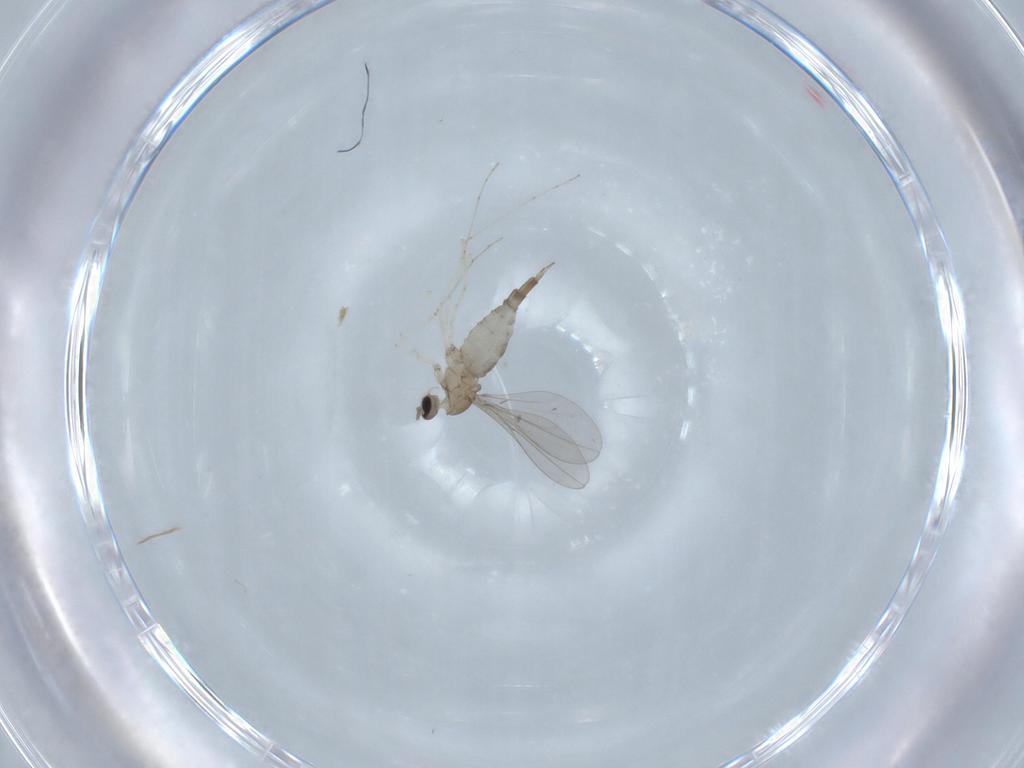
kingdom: Animalia
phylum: Arthropoda
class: Insecta
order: Diptera
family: Cecidomyiidae
